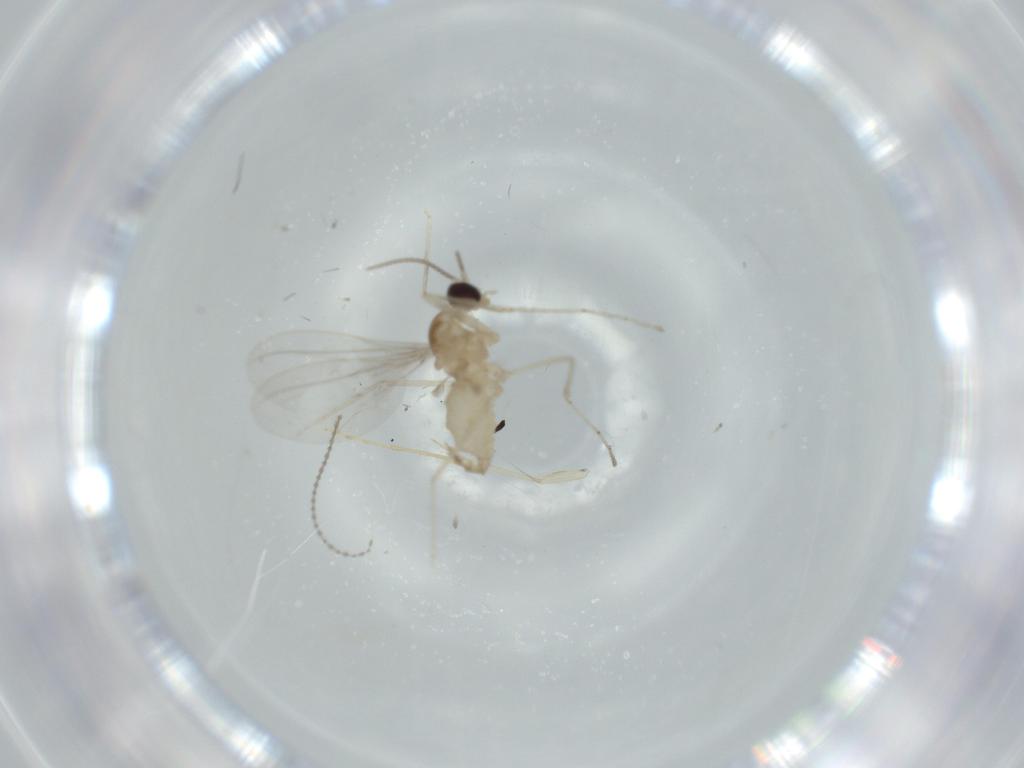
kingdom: Animalia
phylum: Arthropoda
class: Insecta
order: Diptera
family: Cecidomyiidae
